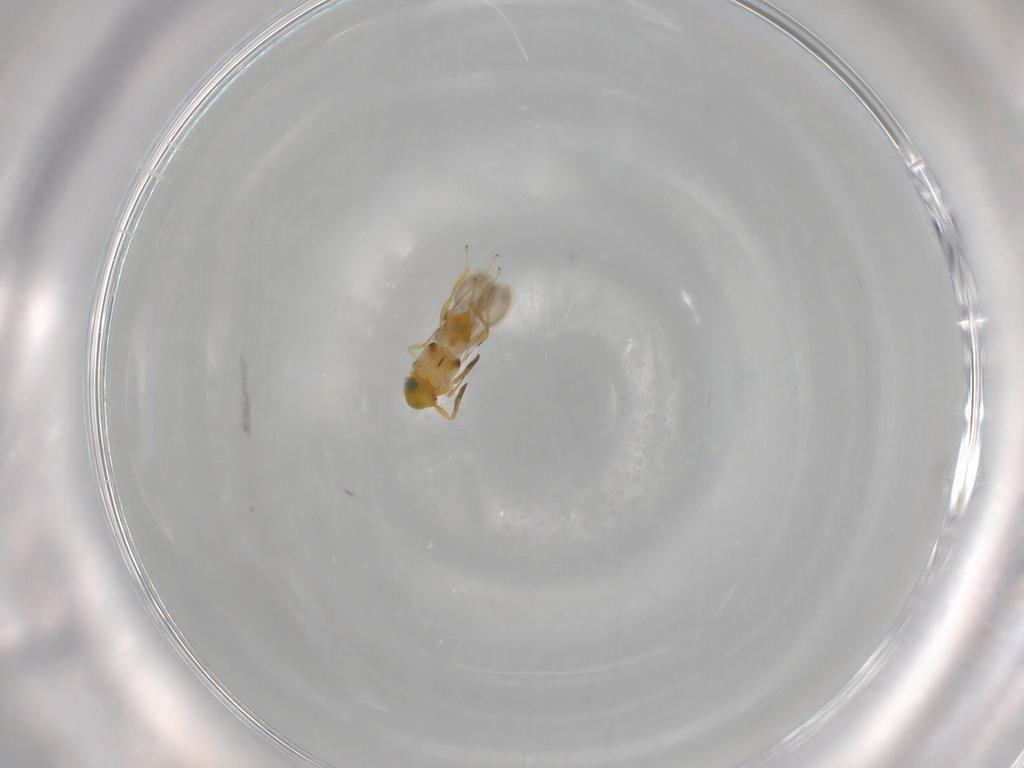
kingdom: Animalia
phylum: Arthropoda
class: Insecta
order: Hymenoptera
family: Encyrtidae
